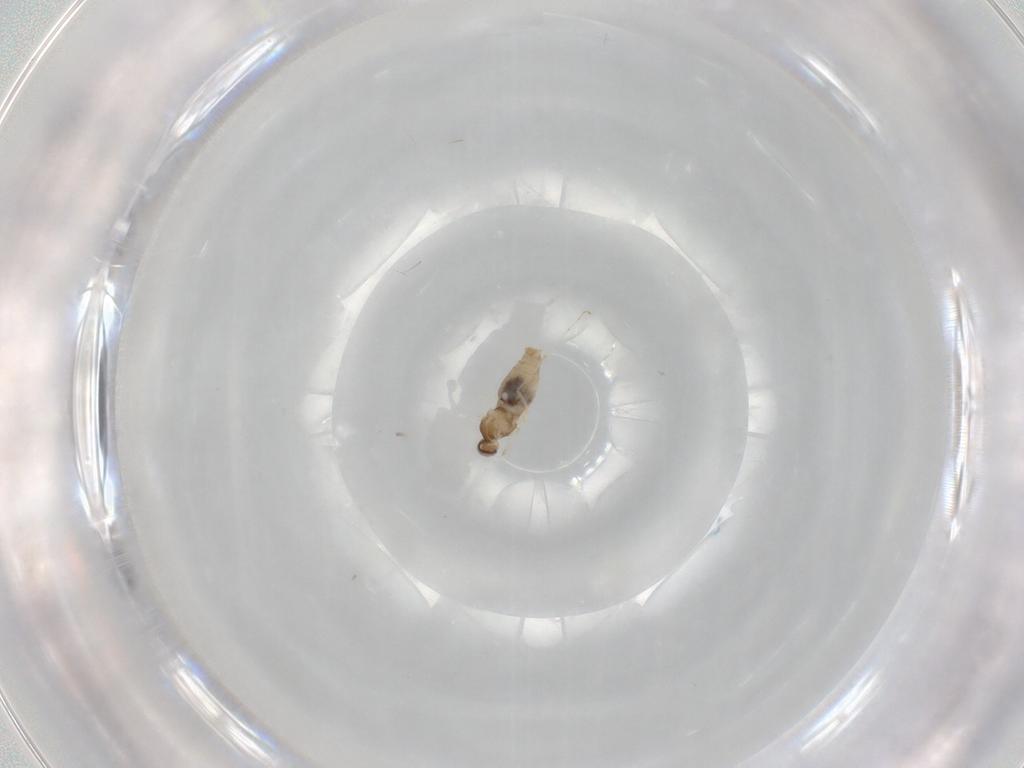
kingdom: Animalia
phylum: Arthropoda
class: Insecta
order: Diptera
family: Cecidomyiidae
